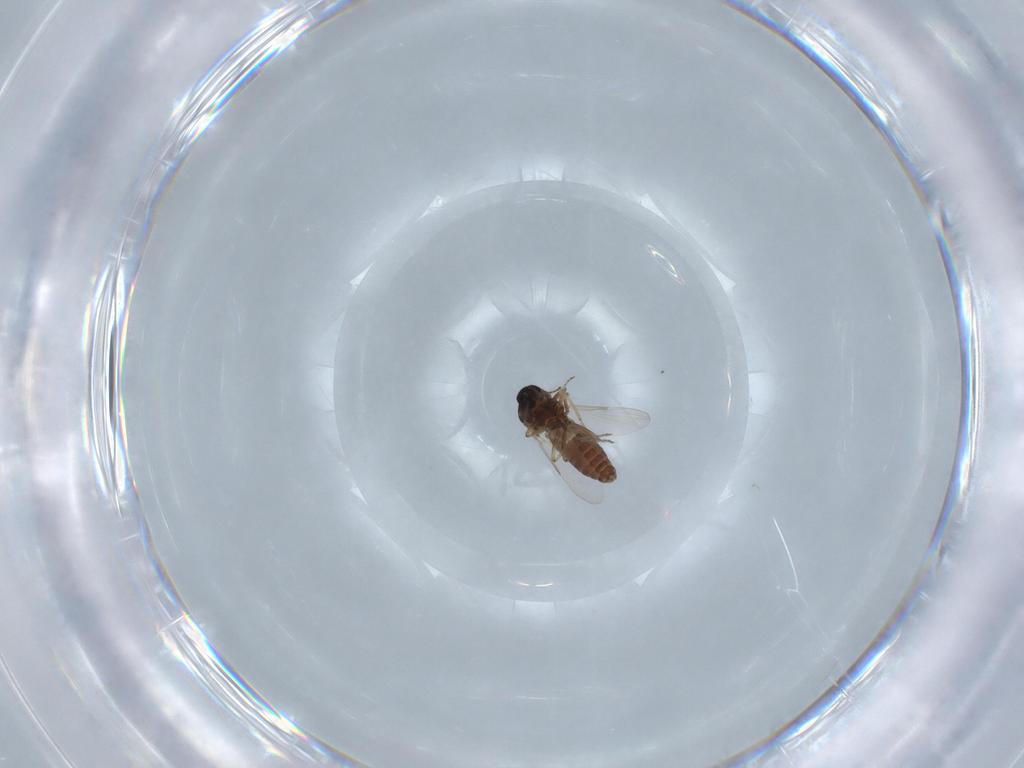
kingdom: Animalia
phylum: Arthropoda
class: Insecta
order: Diptera
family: Ceratopogonidae
